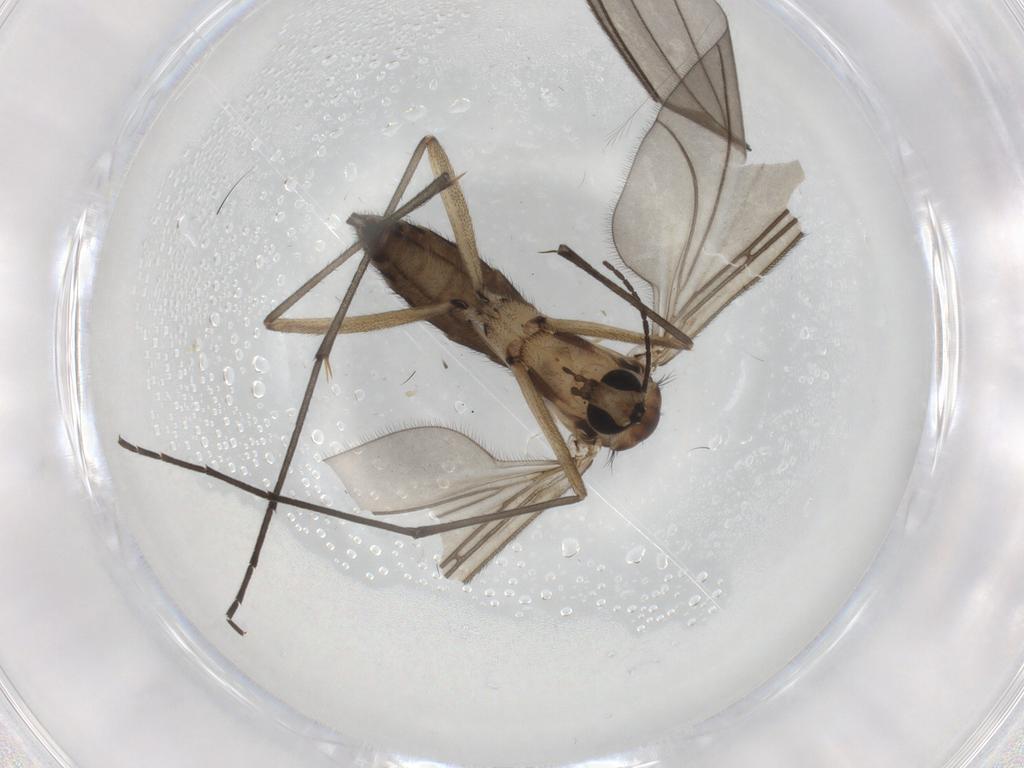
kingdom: Animalia
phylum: Arthropoda
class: Insecta
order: Diptera
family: Sciaridae
